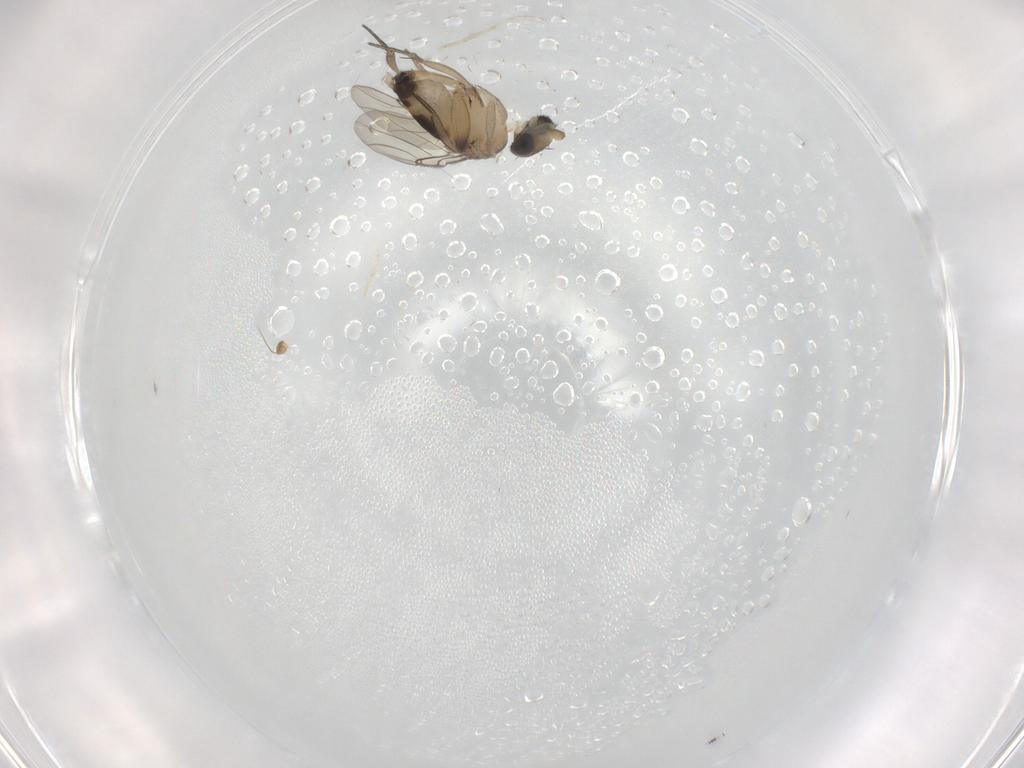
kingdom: Animalia
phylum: Arthropoda
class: Insecta
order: Diptera
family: Phoridae
